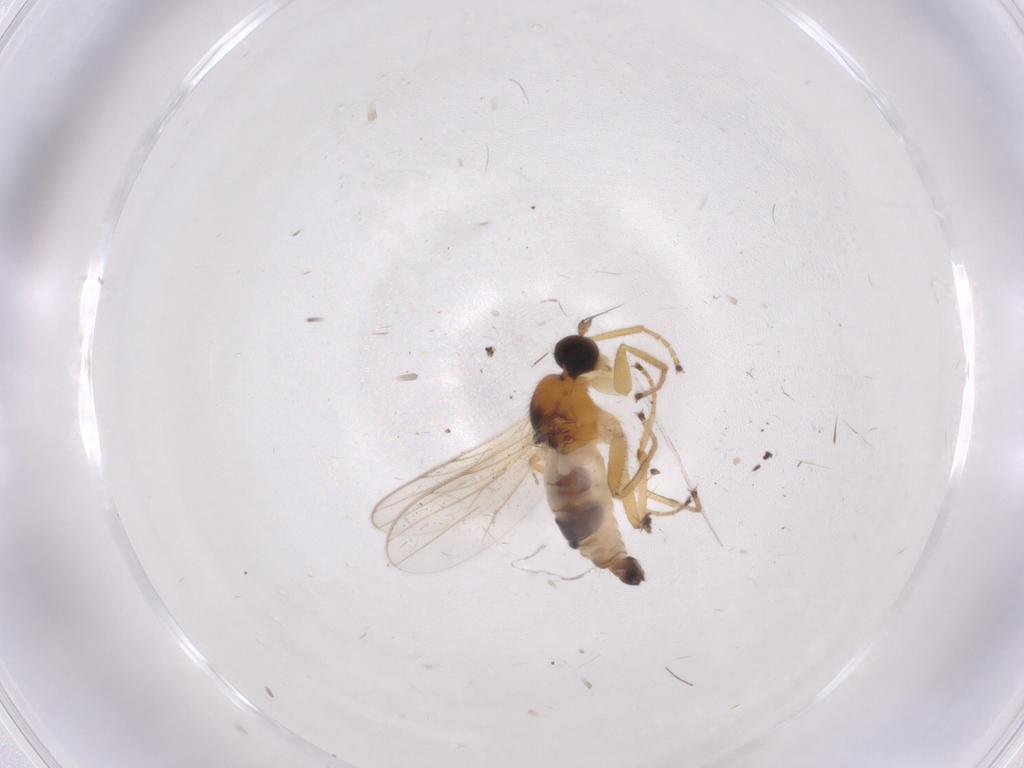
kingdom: Animalia
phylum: Arthropoda
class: Insecta
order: Diptera
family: Hybotidae
